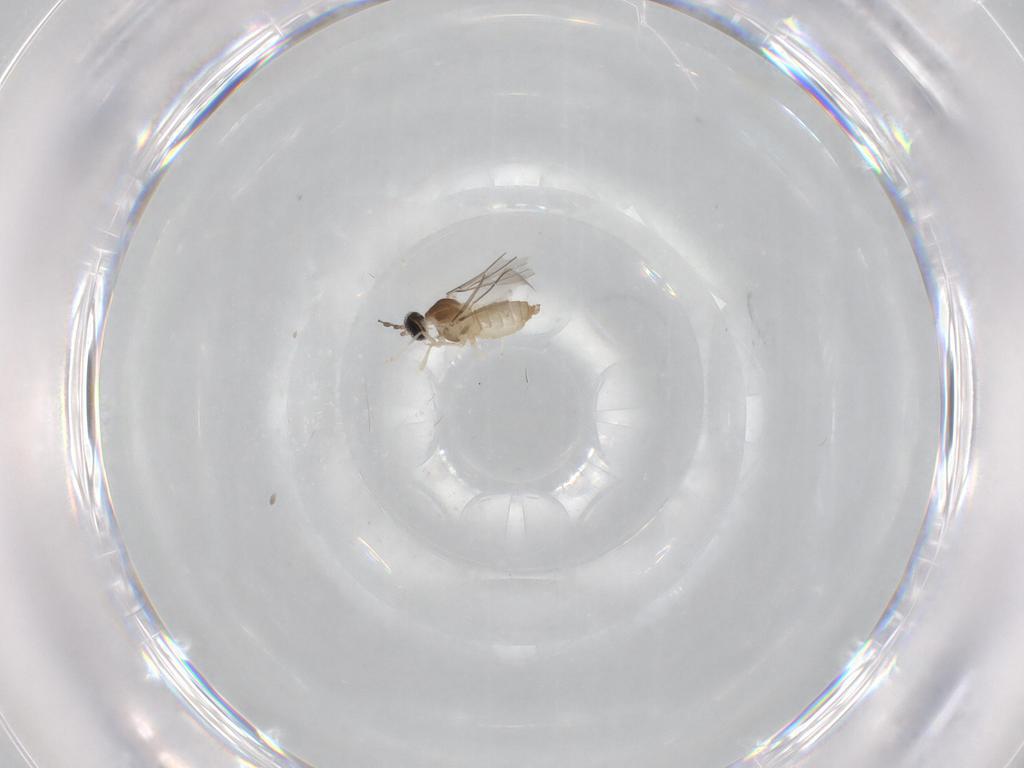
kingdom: Animalia
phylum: Arthropoda
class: Insecta
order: Diptera
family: Cecidomyiidae
